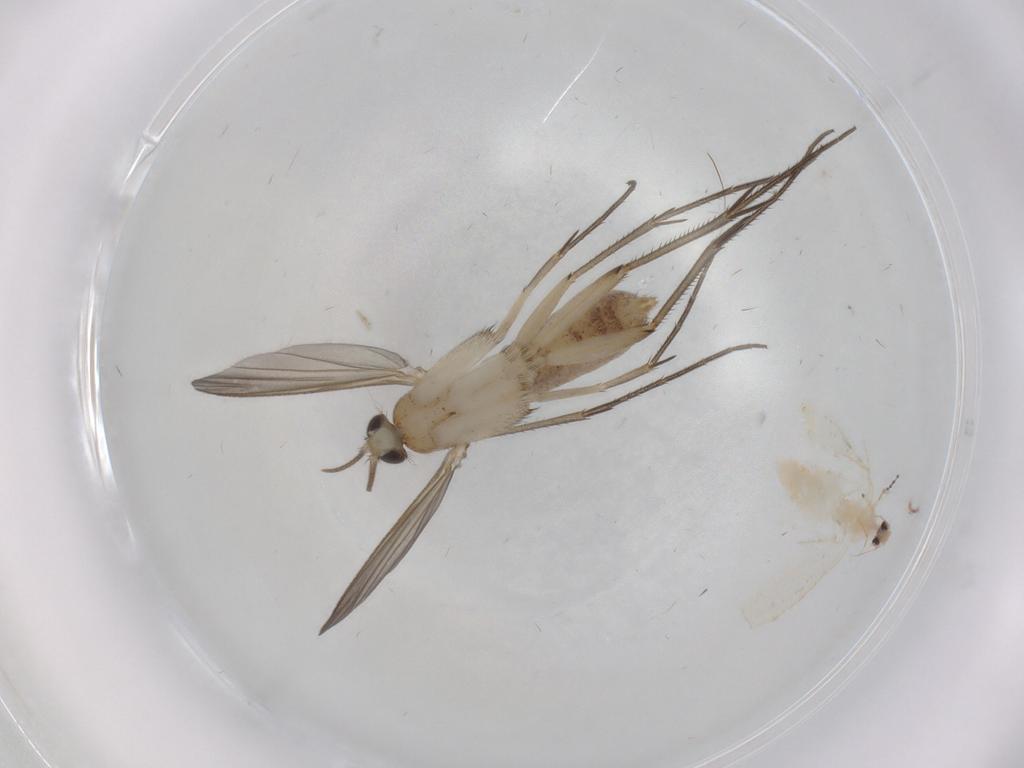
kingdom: Animalia
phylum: Arthropoda
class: Insecta
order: Diptera
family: Mycetophilidae
